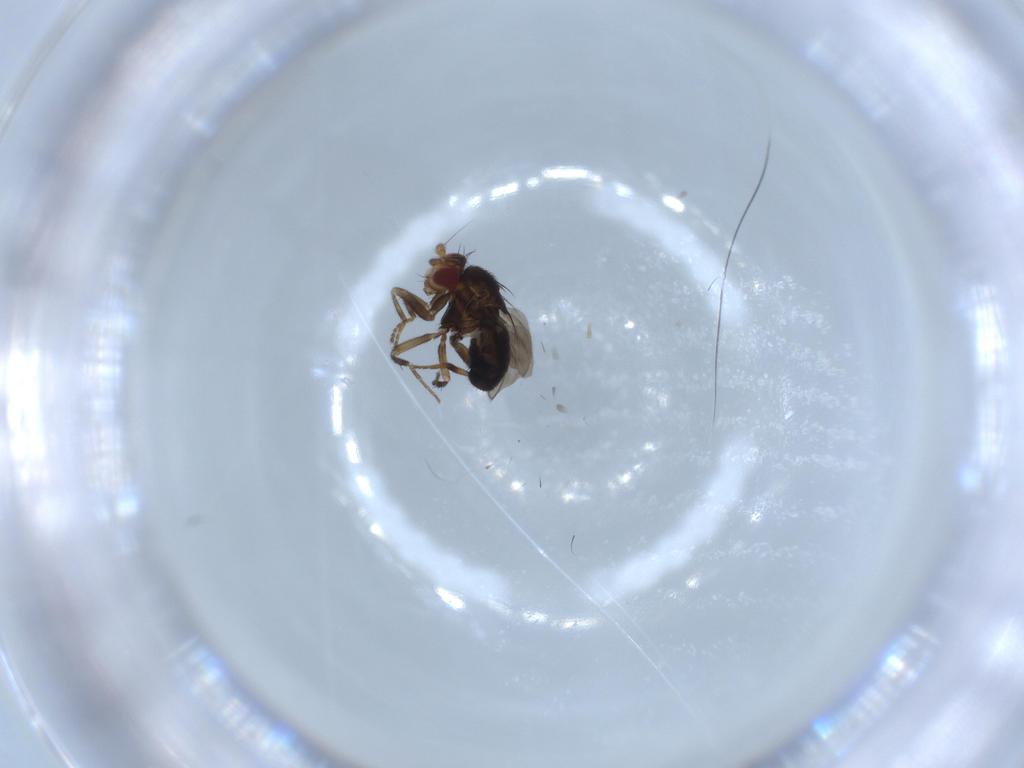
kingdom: Animalia
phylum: Arthropoda
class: Insecta
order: Diptera
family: Sphaeroceridae
